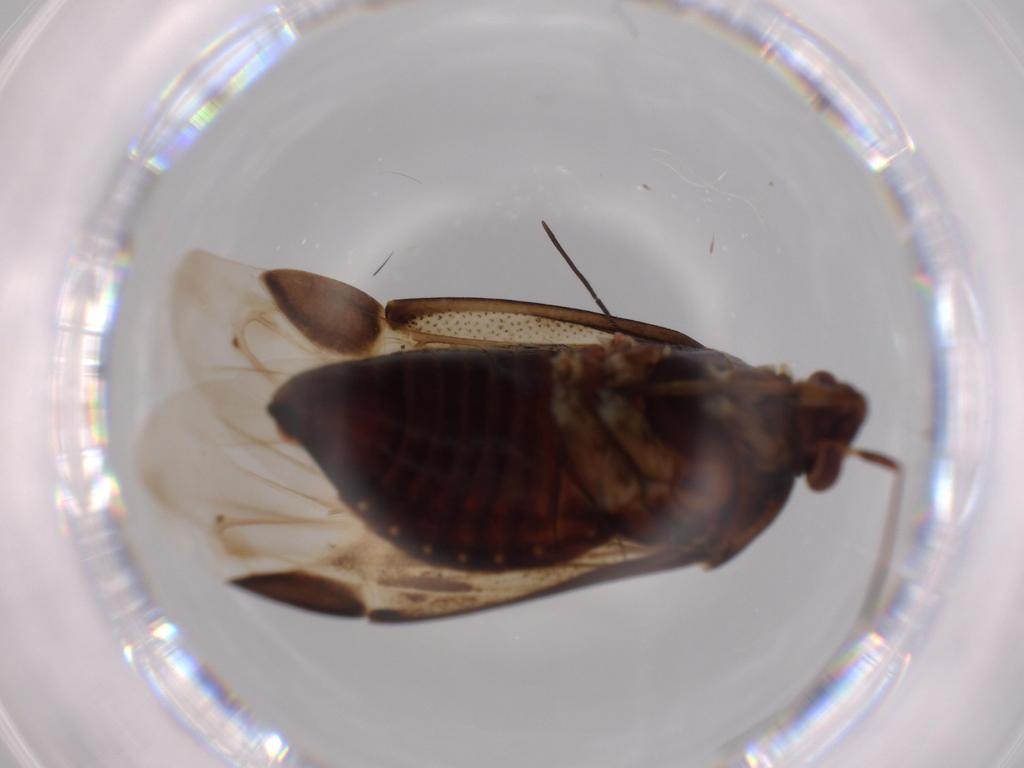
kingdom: Animalia
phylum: Arthropoda
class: Insecta
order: Hemiptera
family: Miridae
